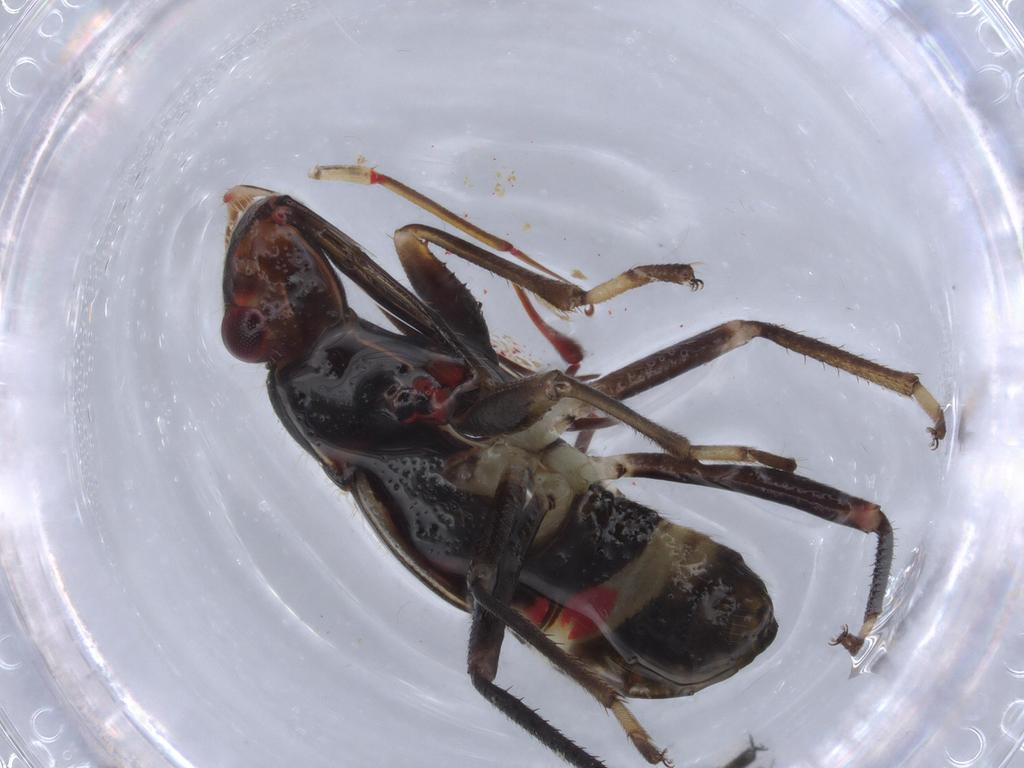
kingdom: Animalia
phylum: Arthropoda
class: Insecta
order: Hemiptera
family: Rhyparochromidae
